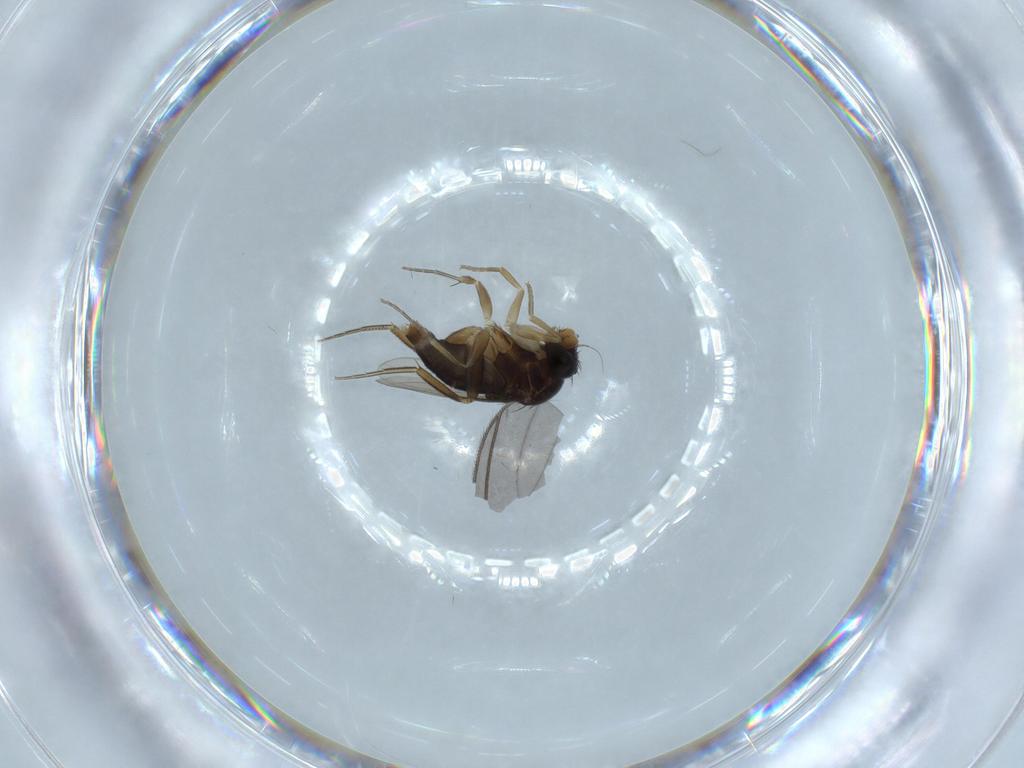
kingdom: Animalia
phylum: Arthropoda
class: Insecta
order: Diptera
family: Phoridae
